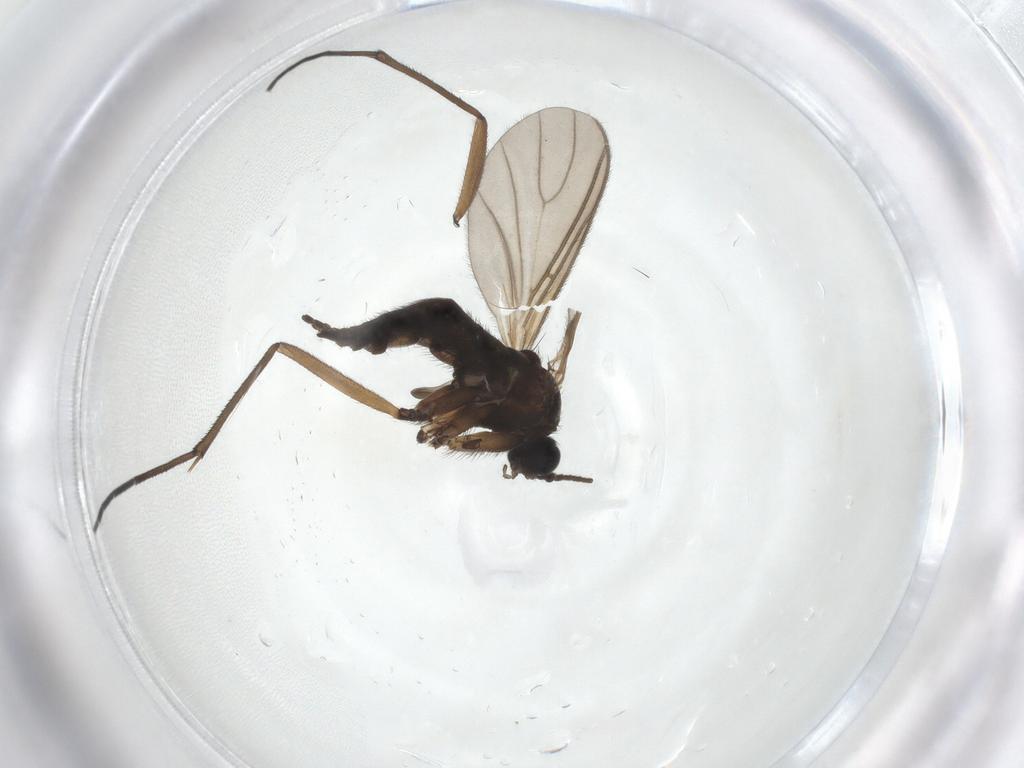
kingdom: Animalia
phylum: Arthropoda
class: Insecta
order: Diptera
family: Sciaridae
